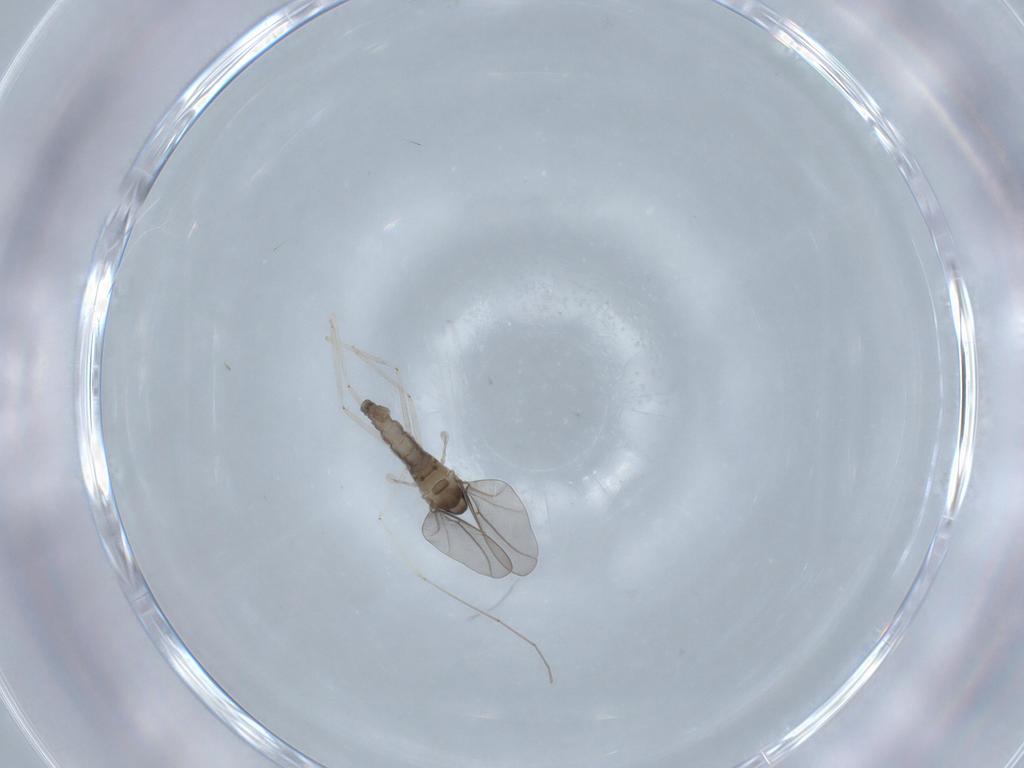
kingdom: Animalia
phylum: Arthropoda
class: Insecta
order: Diptera
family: Cecidomyiidae
